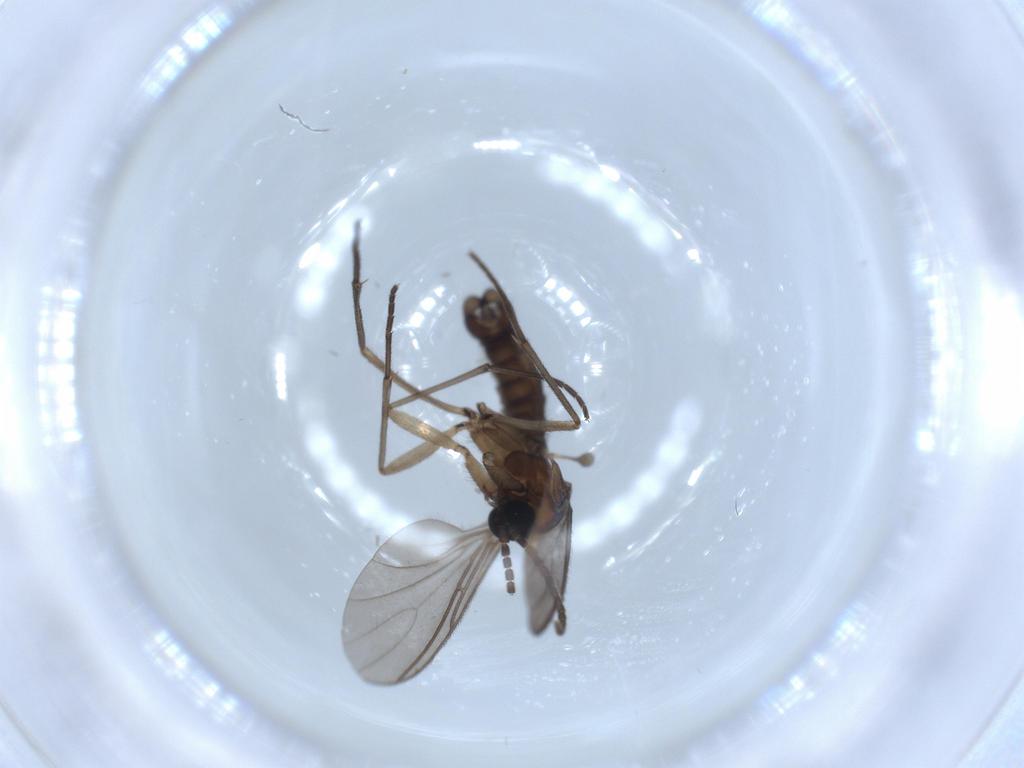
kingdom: Animalia
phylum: Arthropoda
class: Insecta
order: Diptera
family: Sciaridae
